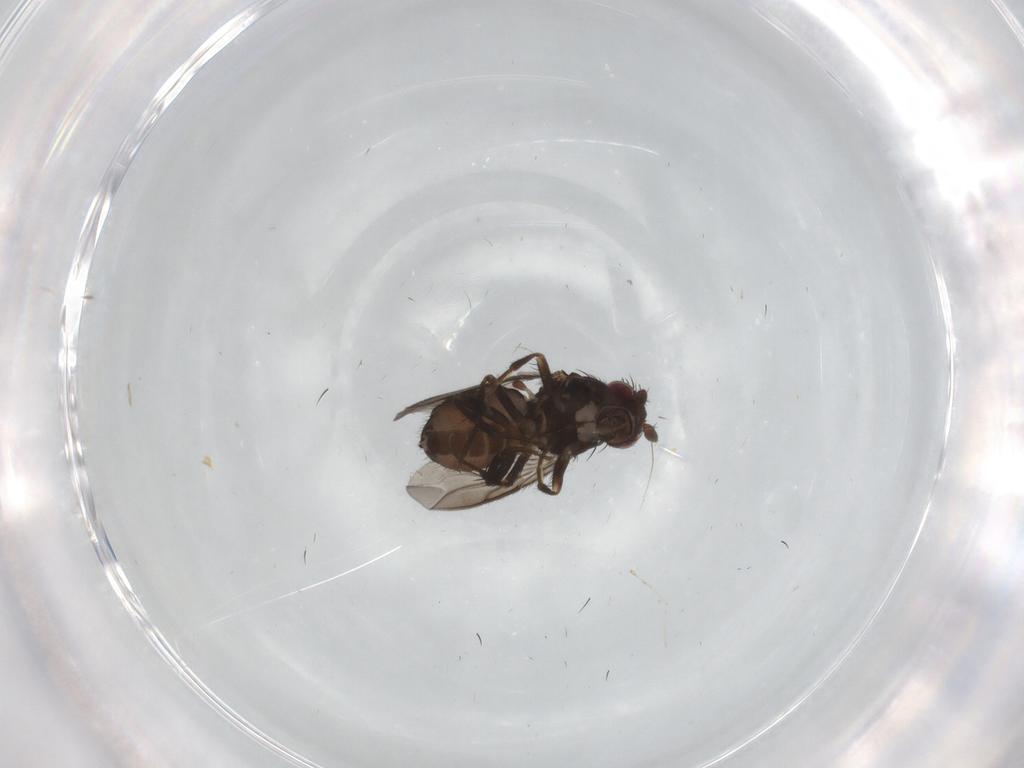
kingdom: Animalia
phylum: Arthropoda
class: Insecta
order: Diptera
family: Sphaeroceridae
